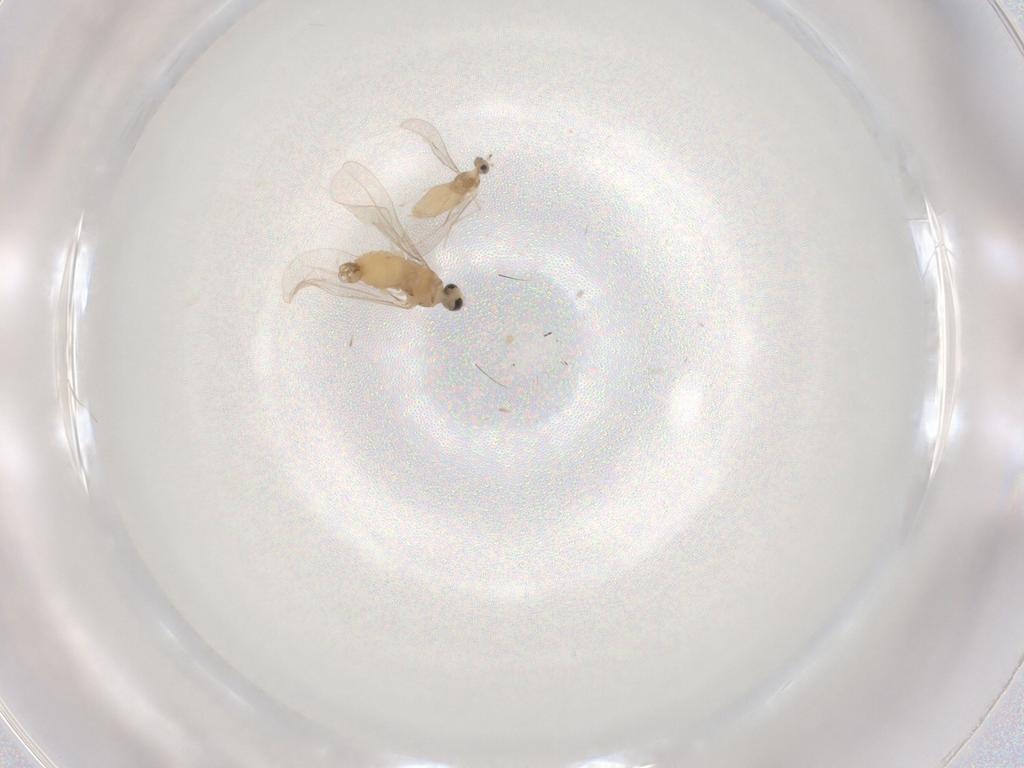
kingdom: Animalia
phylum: Arthropoda
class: Insecta
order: Diptera
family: Cecidomyiidae
